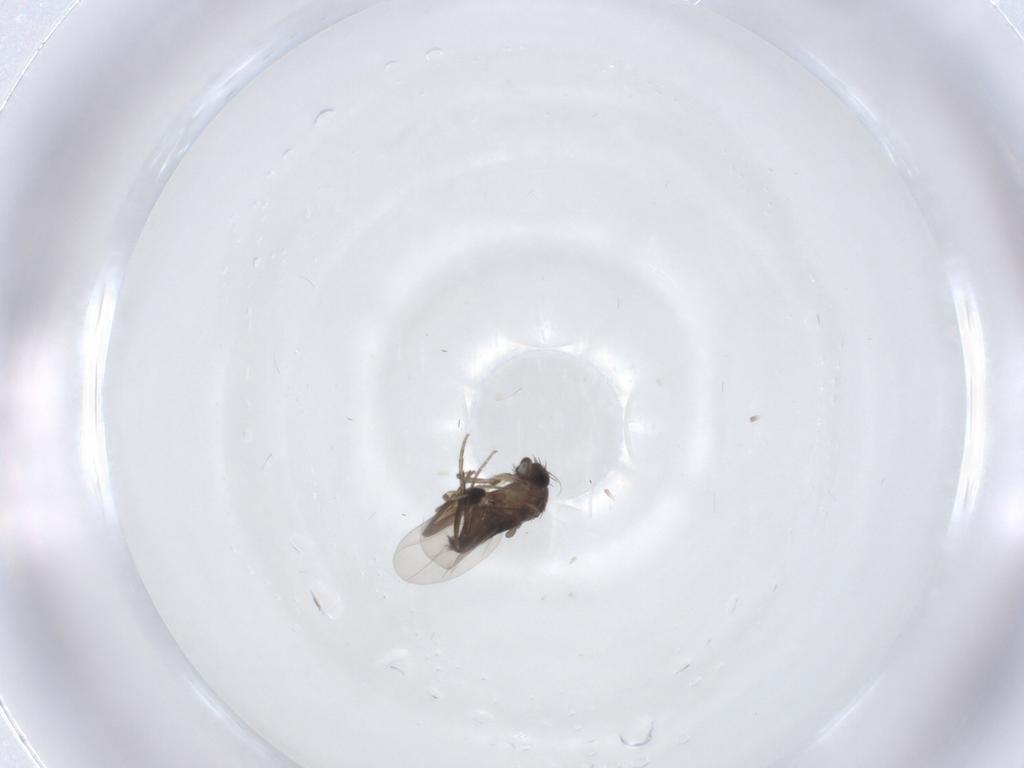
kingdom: Animalia
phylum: Arthropoda
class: Insecta
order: Diptera
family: Phoridae
